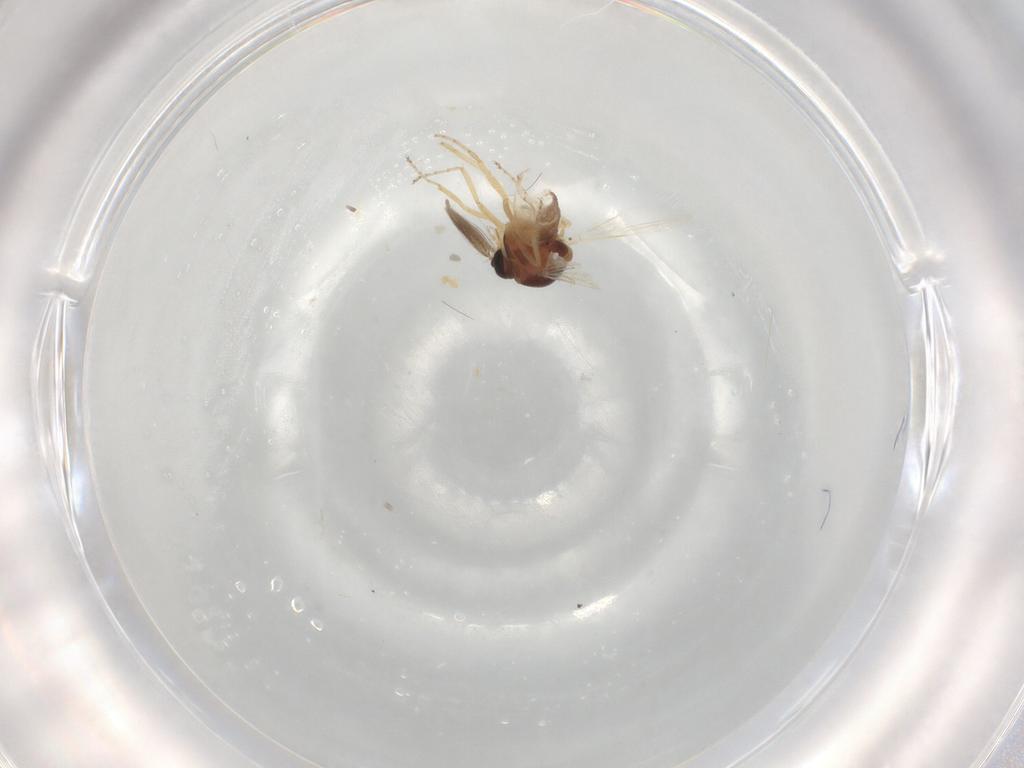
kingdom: Animalia
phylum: Arthropoda
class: Insecta
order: Diptera
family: Ceratopogonidae
